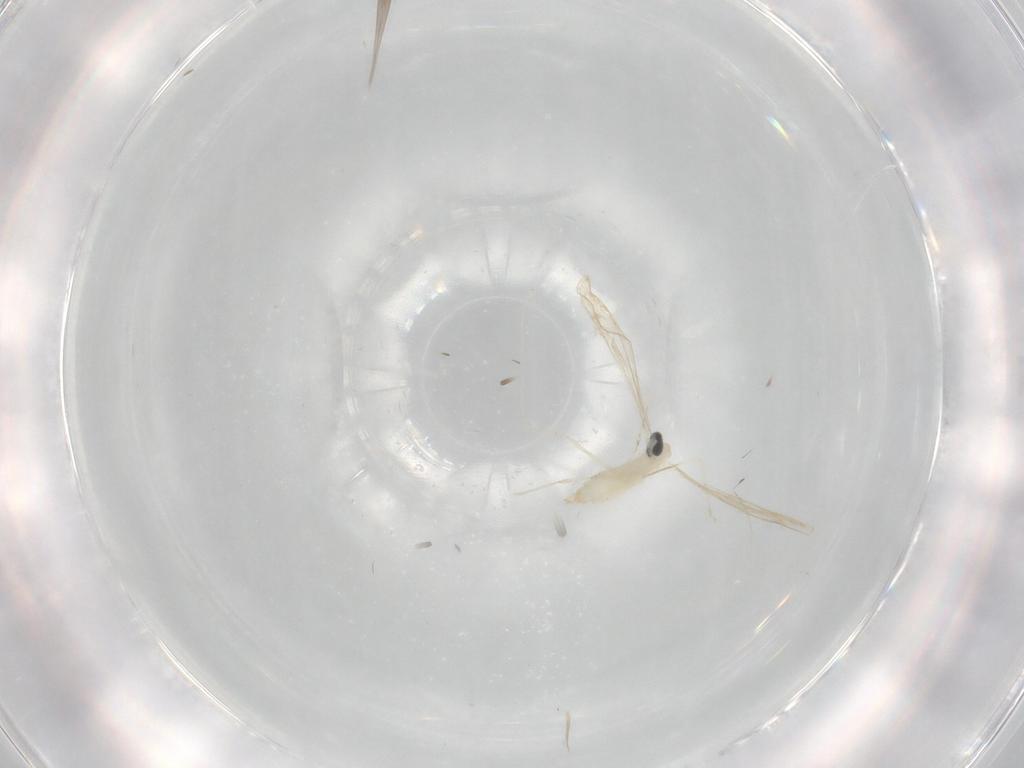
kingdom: Animalia
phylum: Arthropoda
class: Insecta
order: Diptera
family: Cecidomyiidae
